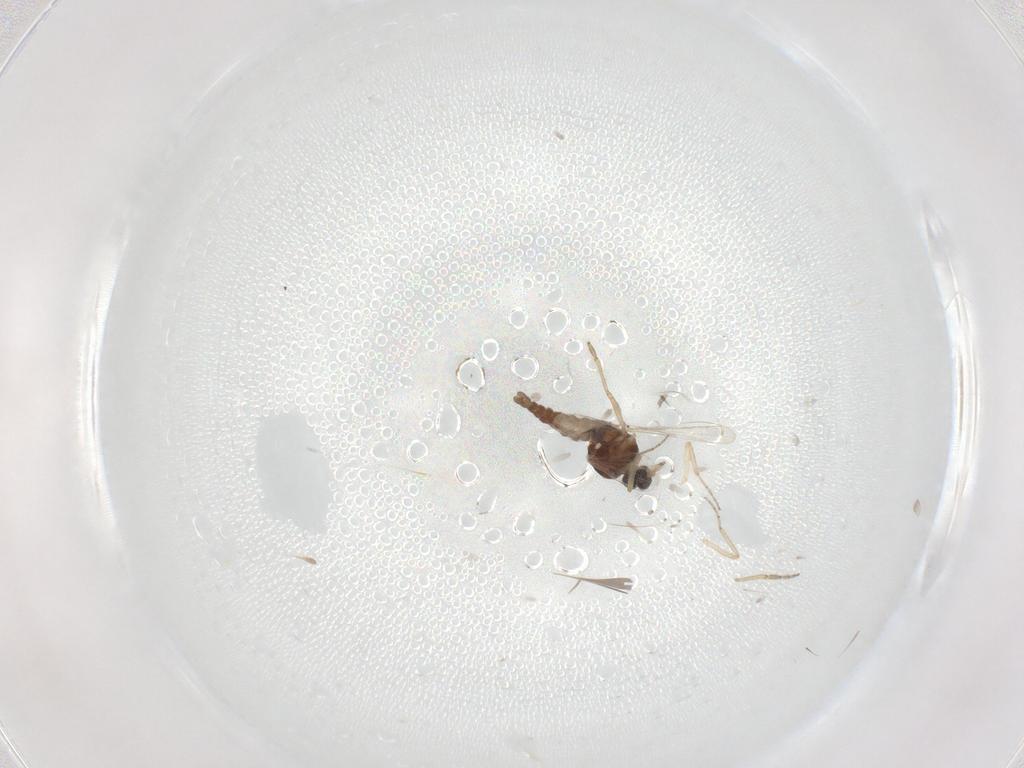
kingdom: Animalia
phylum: Arthropoda
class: Insecta
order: Diptera
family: Ceratopogonidae
